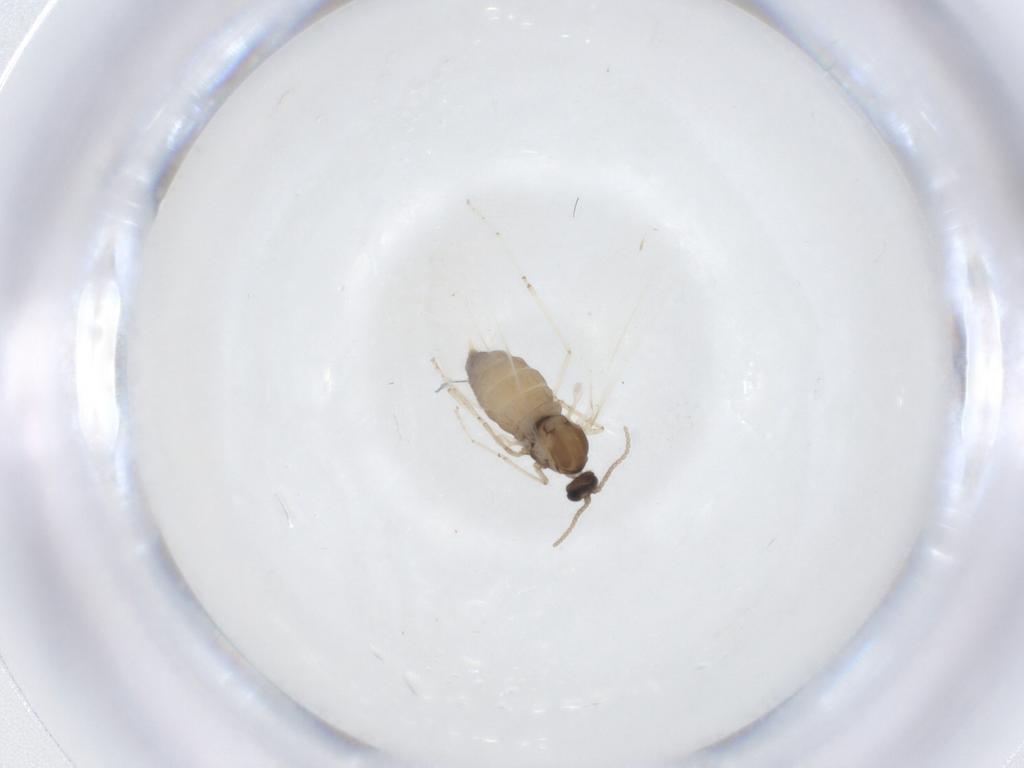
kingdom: Animalia
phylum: Arthropoda
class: Insecta
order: Diptera
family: Cecidomyiidae
